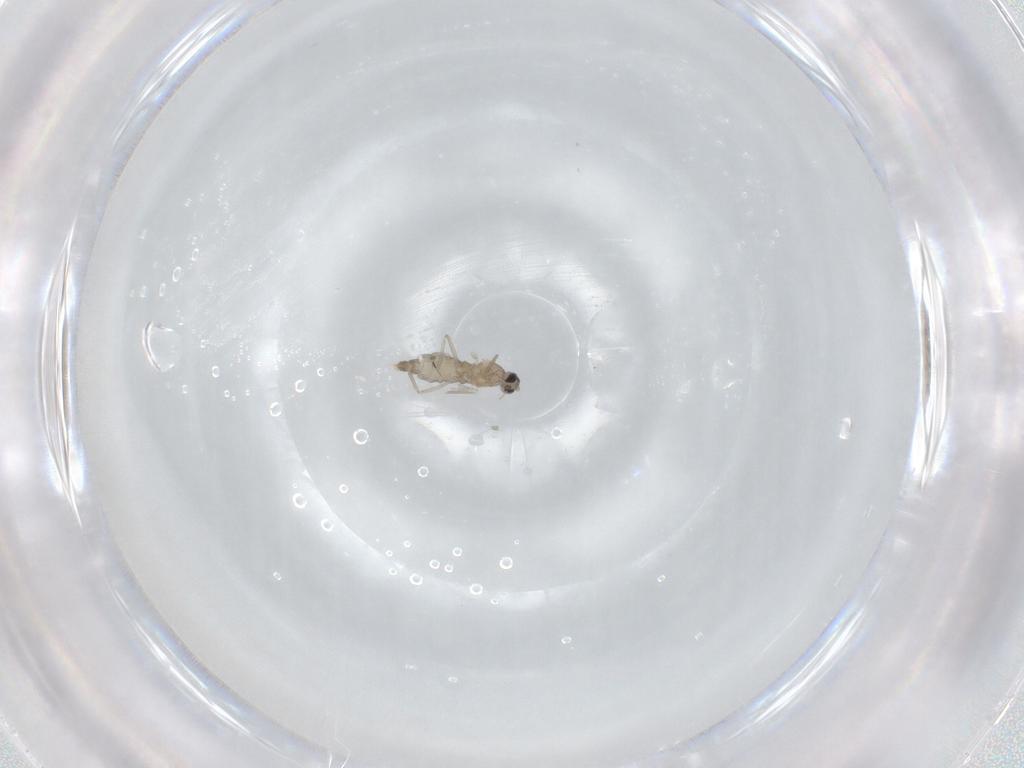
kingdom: Animalia
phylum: Arthropoda
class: Insecta
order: Diptera
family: Cecidomyiidae
